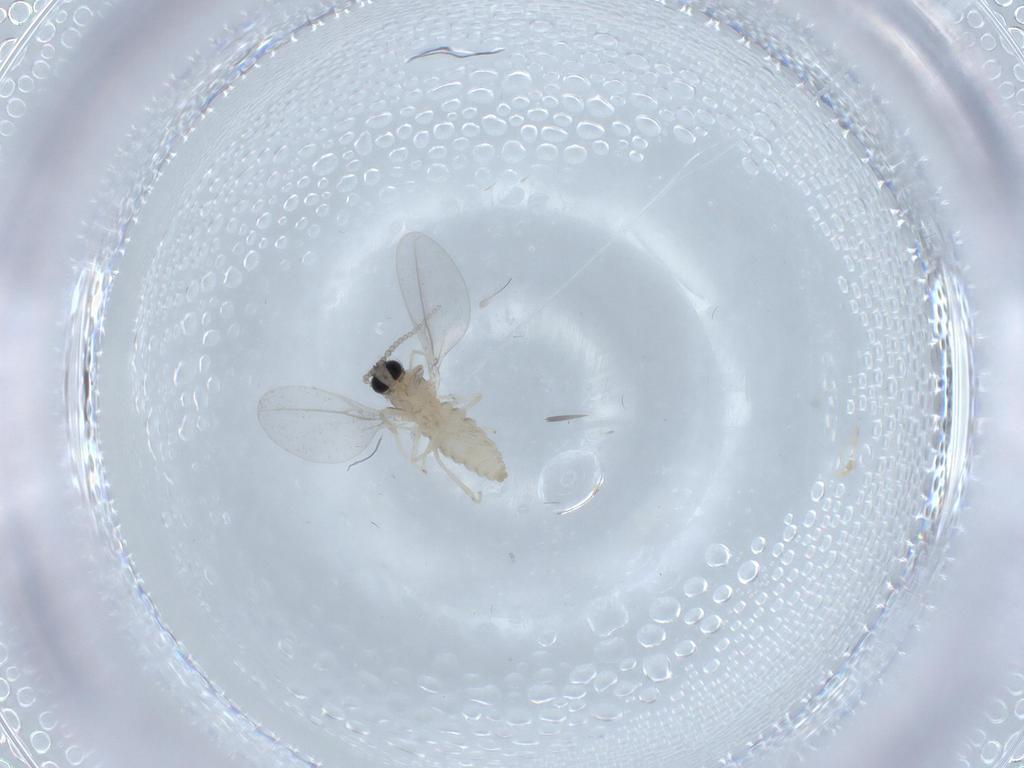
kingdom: Animalia
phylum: Arthropoda
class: Insecta
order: Diptera
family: Cecidomyiidae
